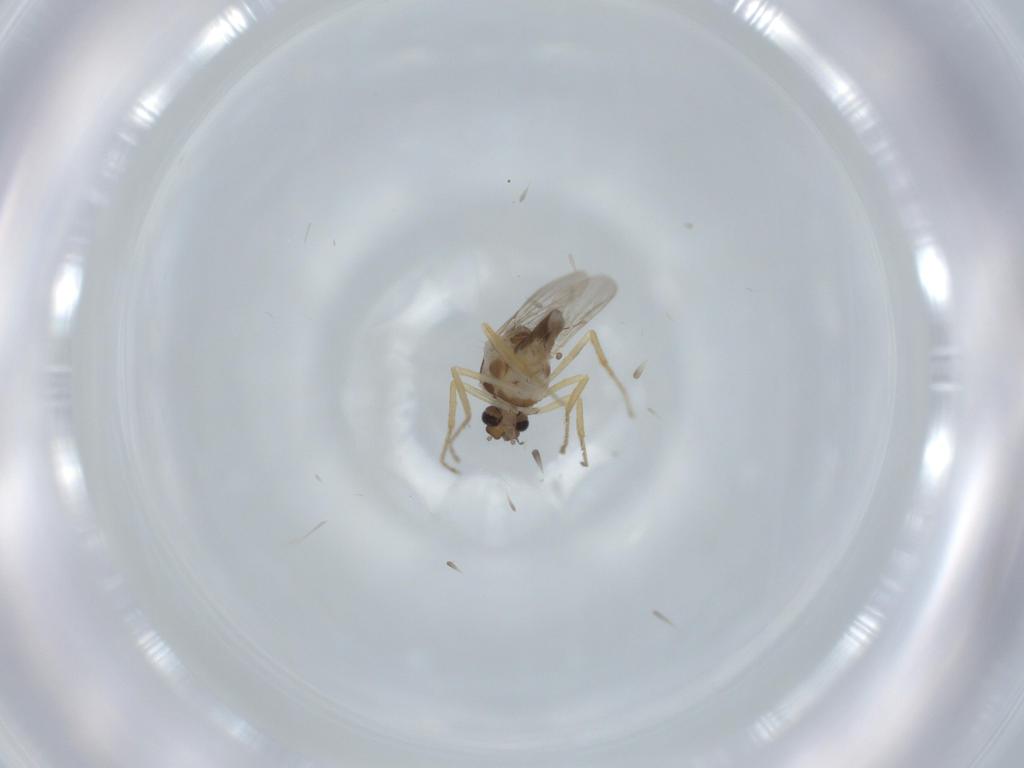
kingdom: Animalia
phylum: Arthropoda
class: Insecta
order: Diptera
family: Ceratopogonidae
